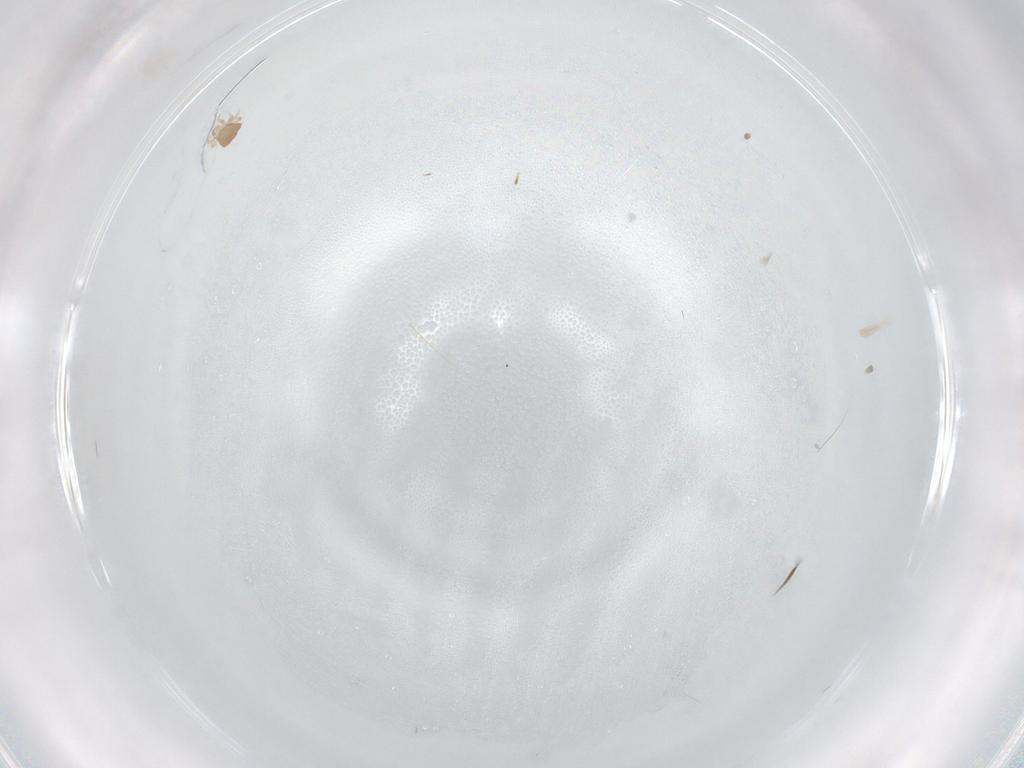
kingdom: Animalia
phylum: Arthropoda
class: Arachnida
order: Mesostigmata
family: Ascidae
